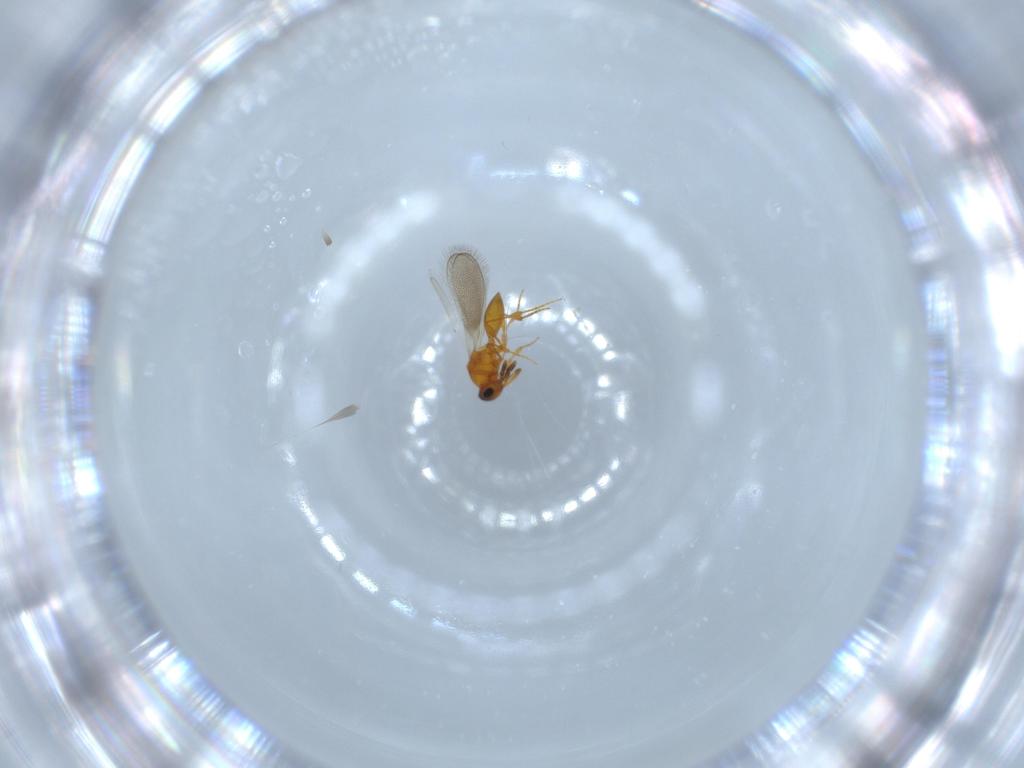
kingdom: Animalia
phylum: Arthropoda
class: Insecta
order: Hymenoptera
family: Platygastridae
